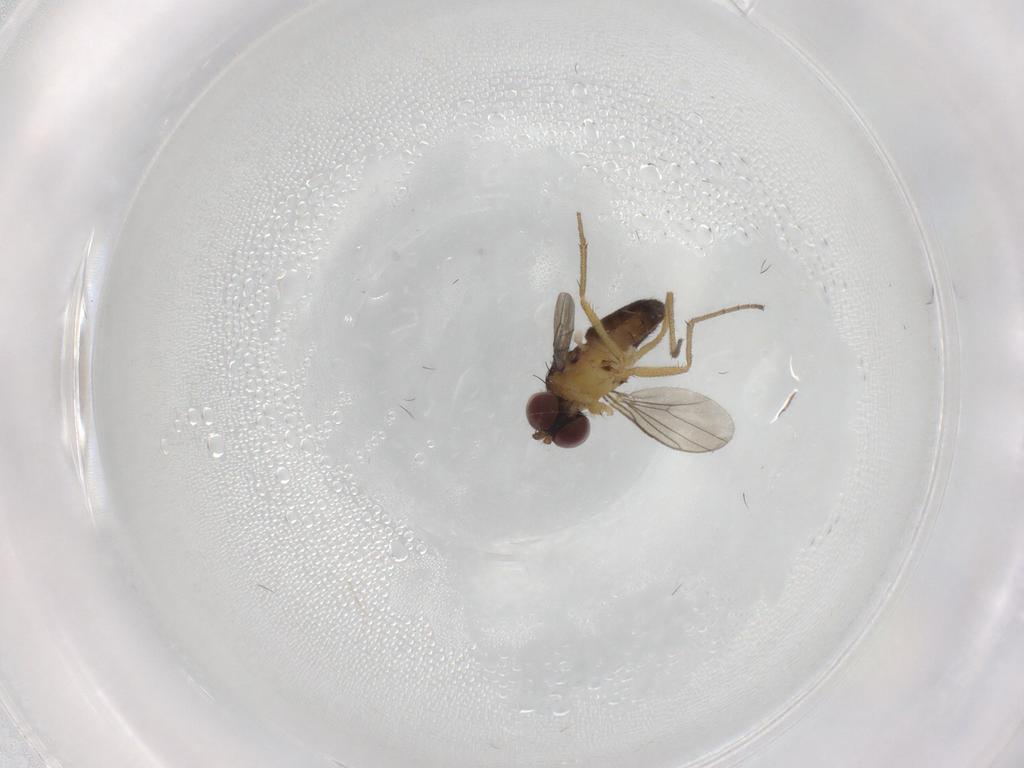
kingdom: Animalia
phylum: Arthropoda
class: Insecta
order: Diptera
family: Dolichopodidae
